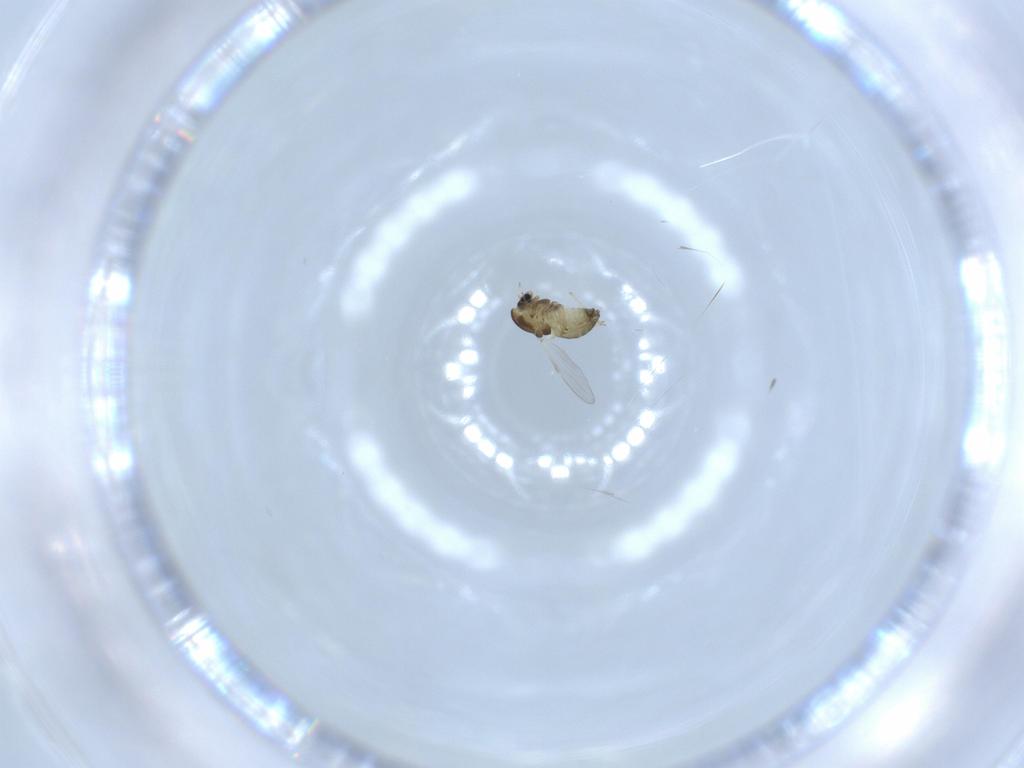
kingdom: Animalia
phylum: Arthropoda
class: Insecta
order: Diptera
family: Chironomidae
